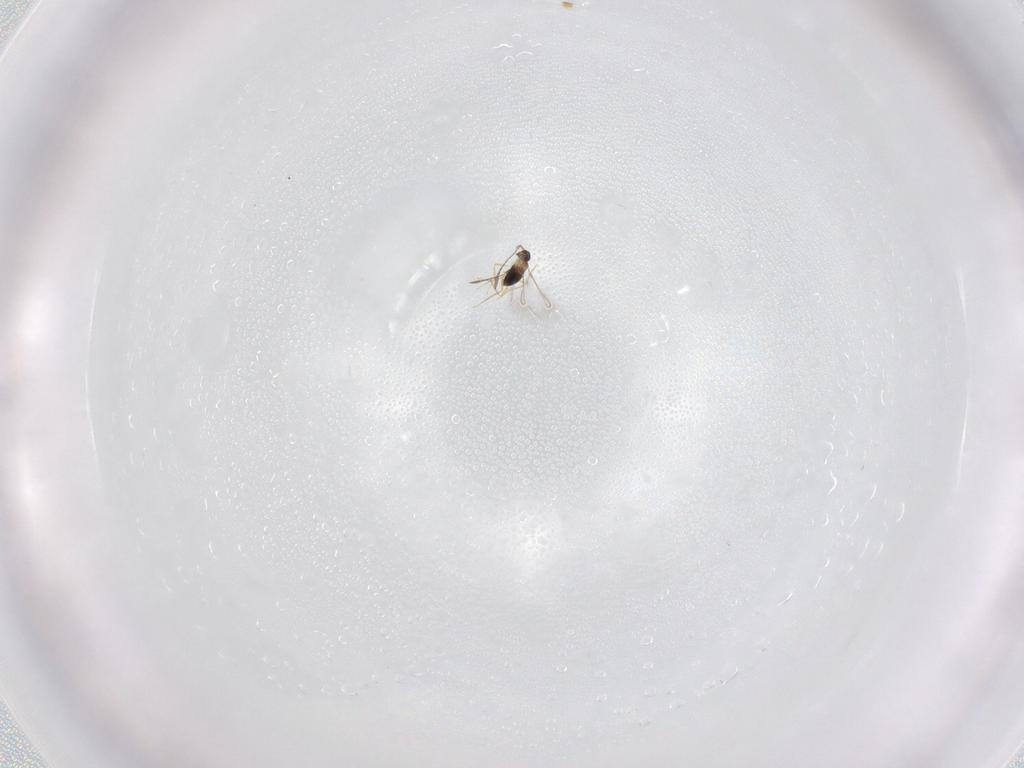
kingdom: Animalia
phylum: Arthropoda
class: Insecta
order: Hymenoptera
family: Mymaridae
